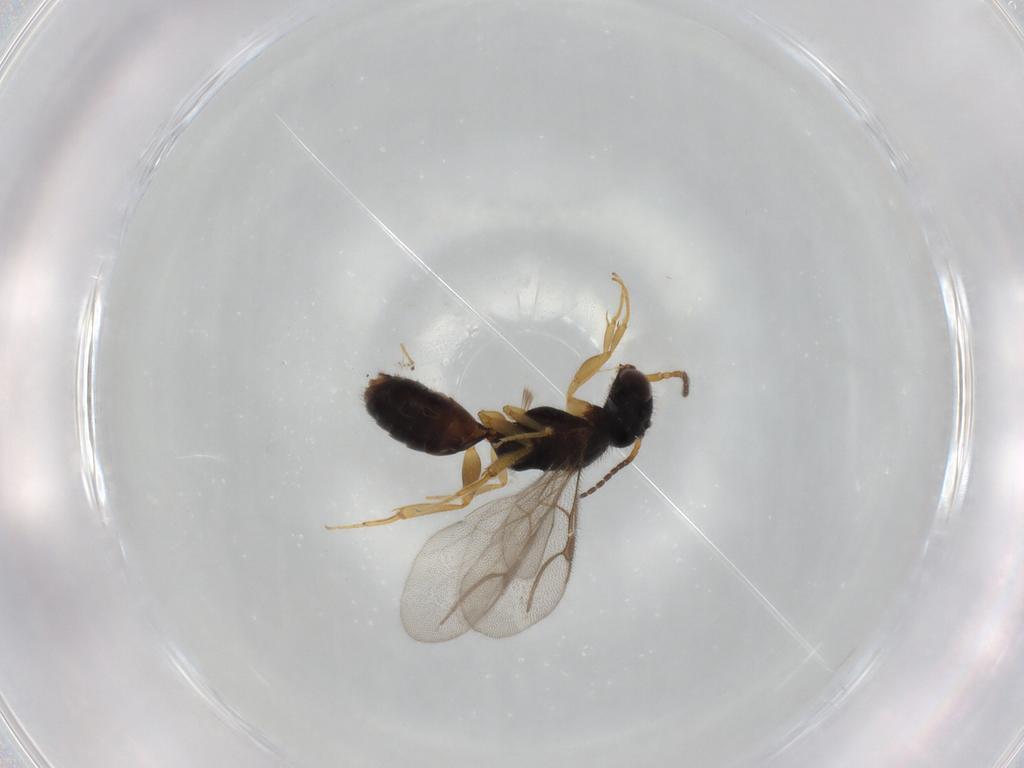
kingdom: Animalia
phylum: Arthropoda
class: Insecta
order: Hymenoptera
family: Bethylidae
